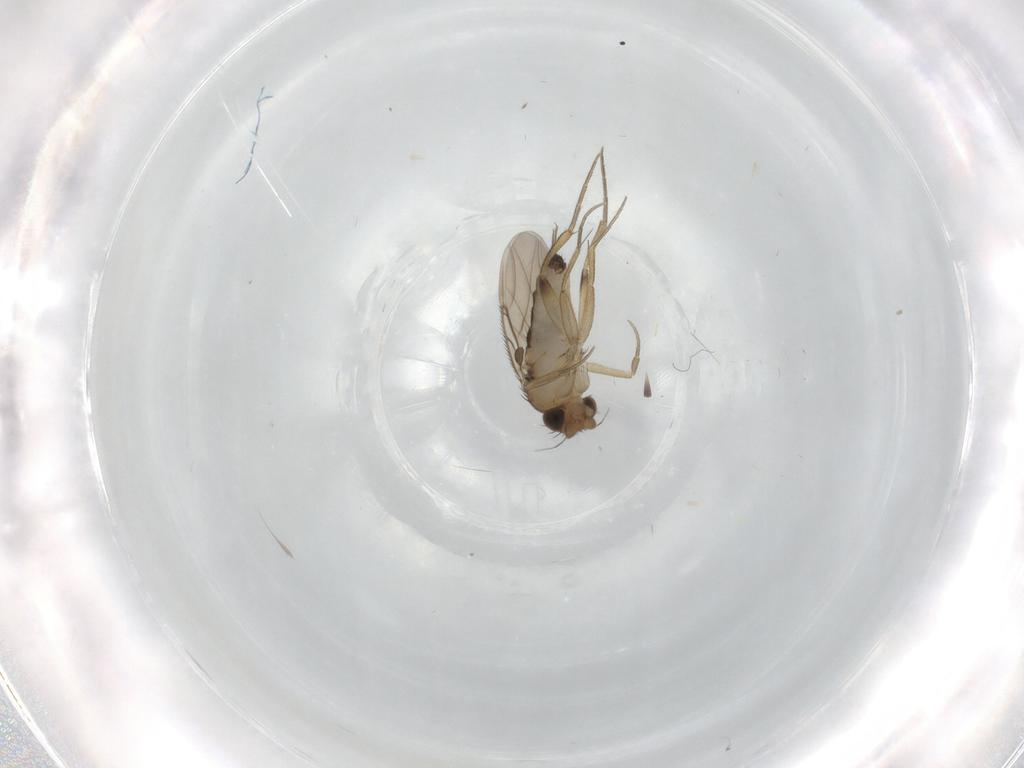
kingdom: Animalia
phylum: Arthropoda
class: Insecta
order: Diptera
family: Phoridae
